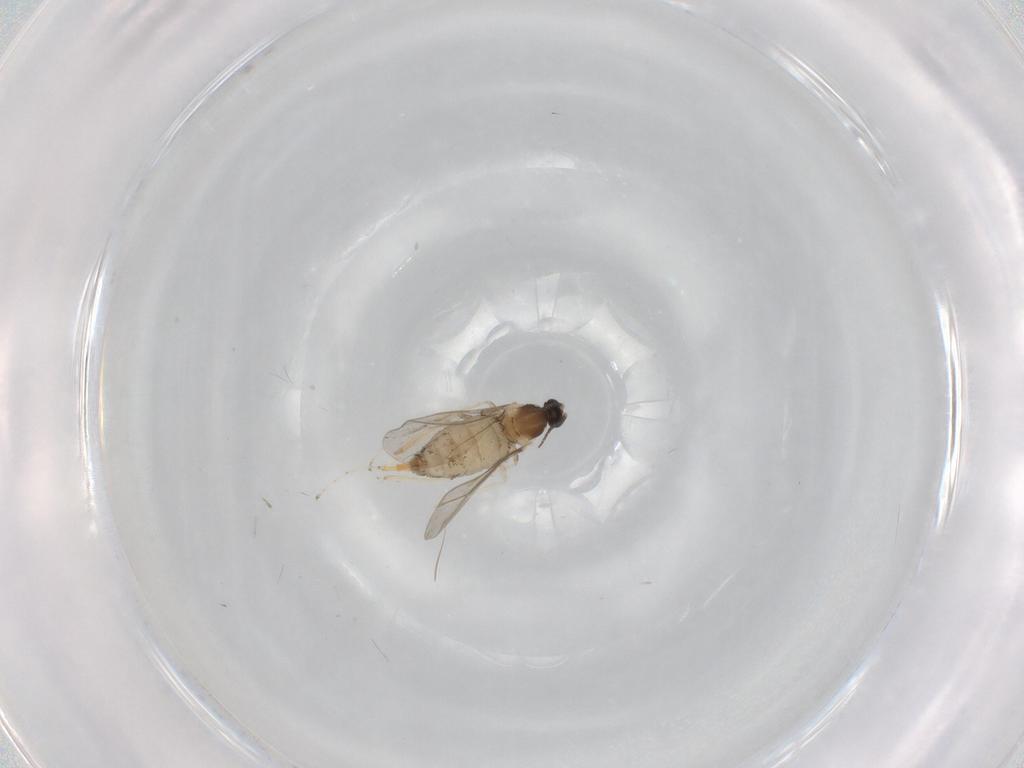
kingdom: Animalia
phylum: Arthropoda
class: Insecta
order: Diptera
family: Cecidomyiidae
